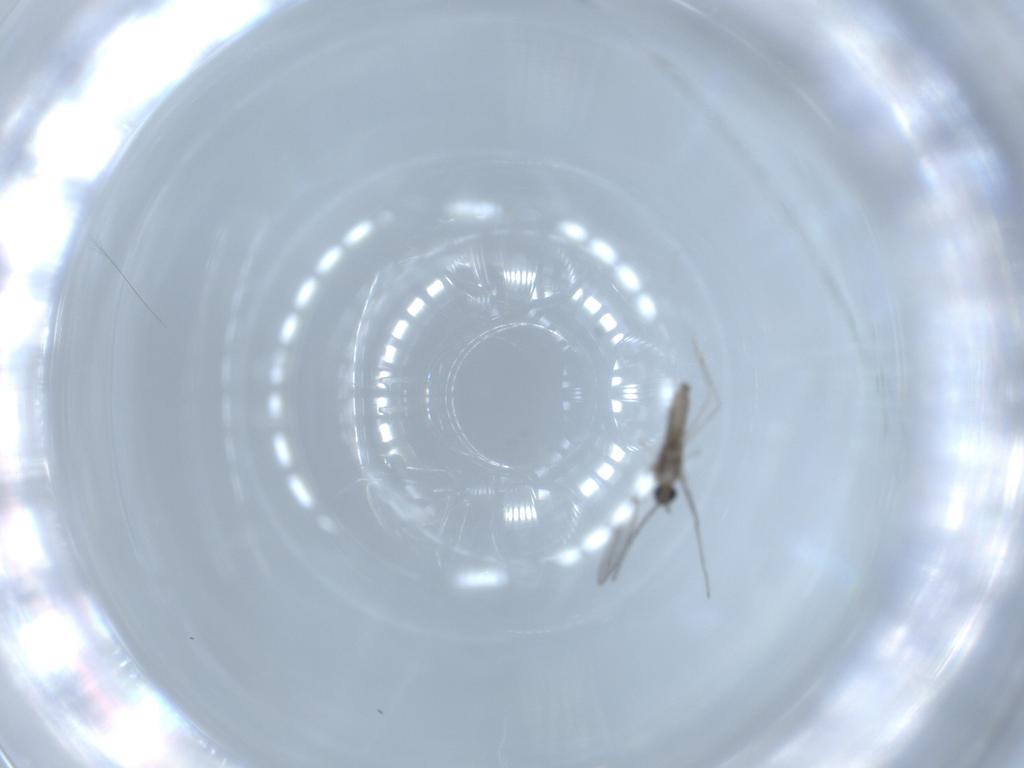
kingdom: Animalia
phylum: Arthropoda
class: Insecta
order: Diptera
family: Cecidomyiidae
